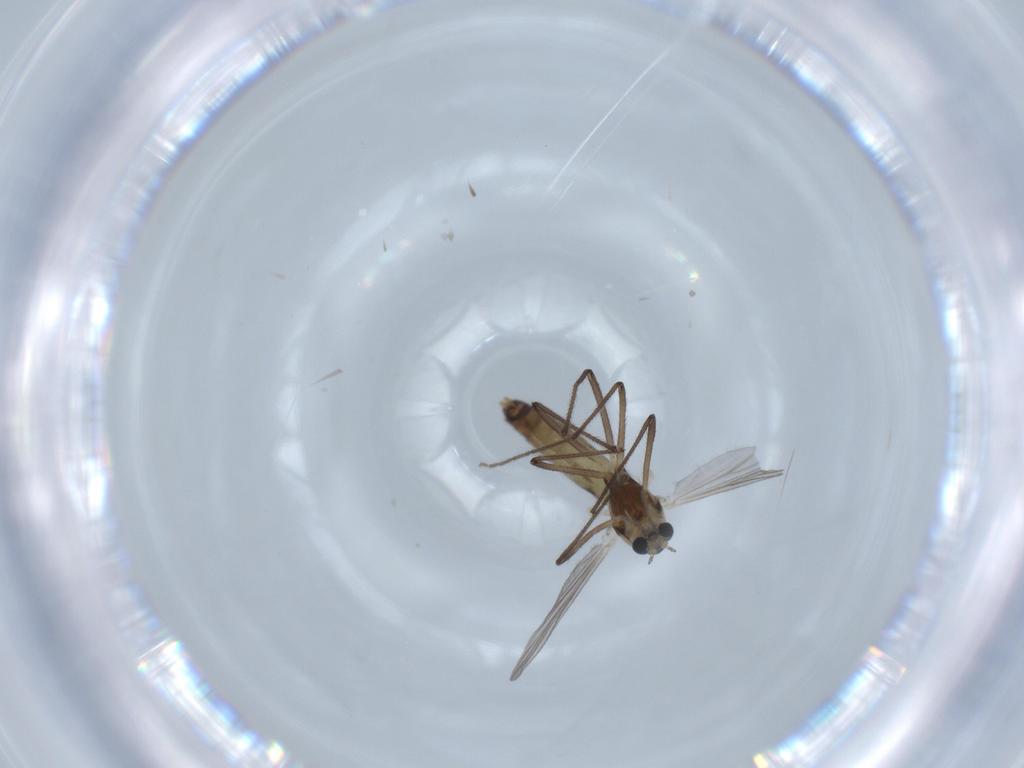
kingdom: Animalia
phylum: Arthropoda
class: Insecta
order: Diptera
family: Chironomidae
